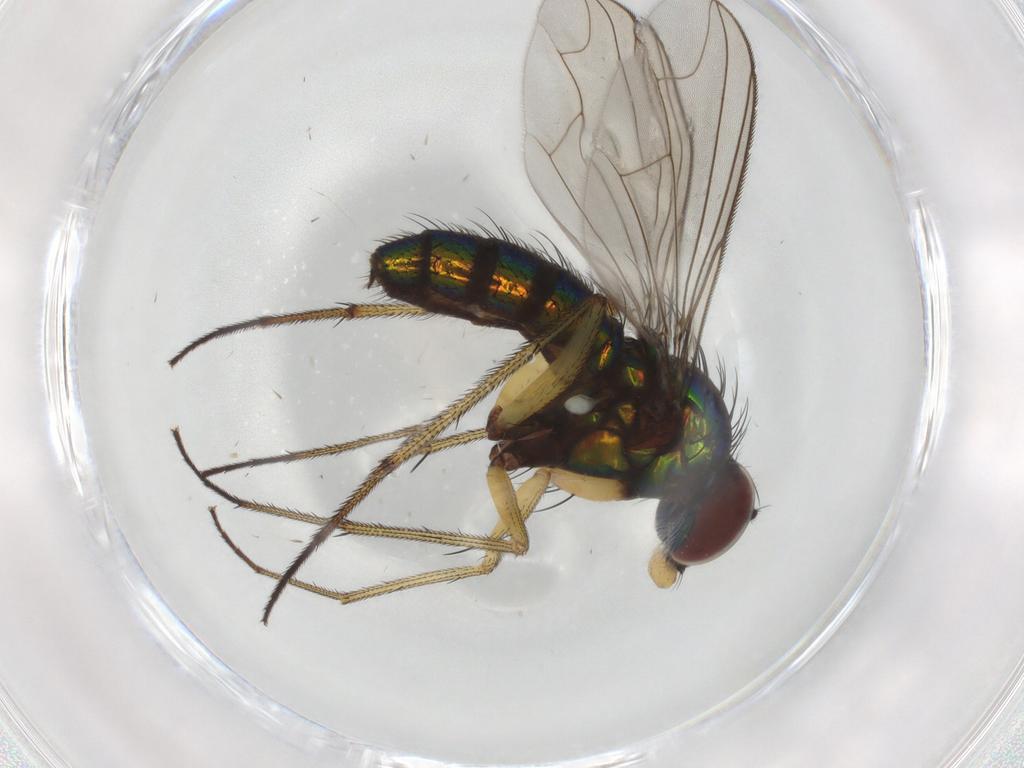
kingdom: Animalia
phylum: Arthropoda
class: Insecta
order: Diptera
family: Dolichopodidae
